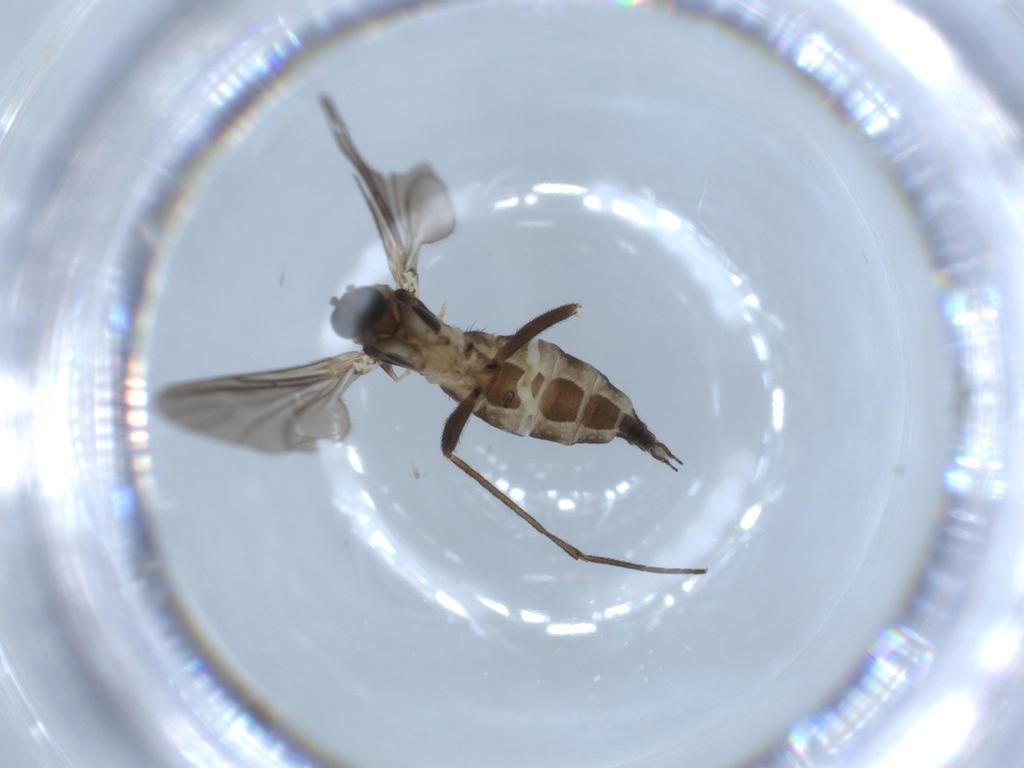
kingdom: Animalia
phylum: Arthropoda
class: Insecta
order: Diptera
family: Sciaridae
